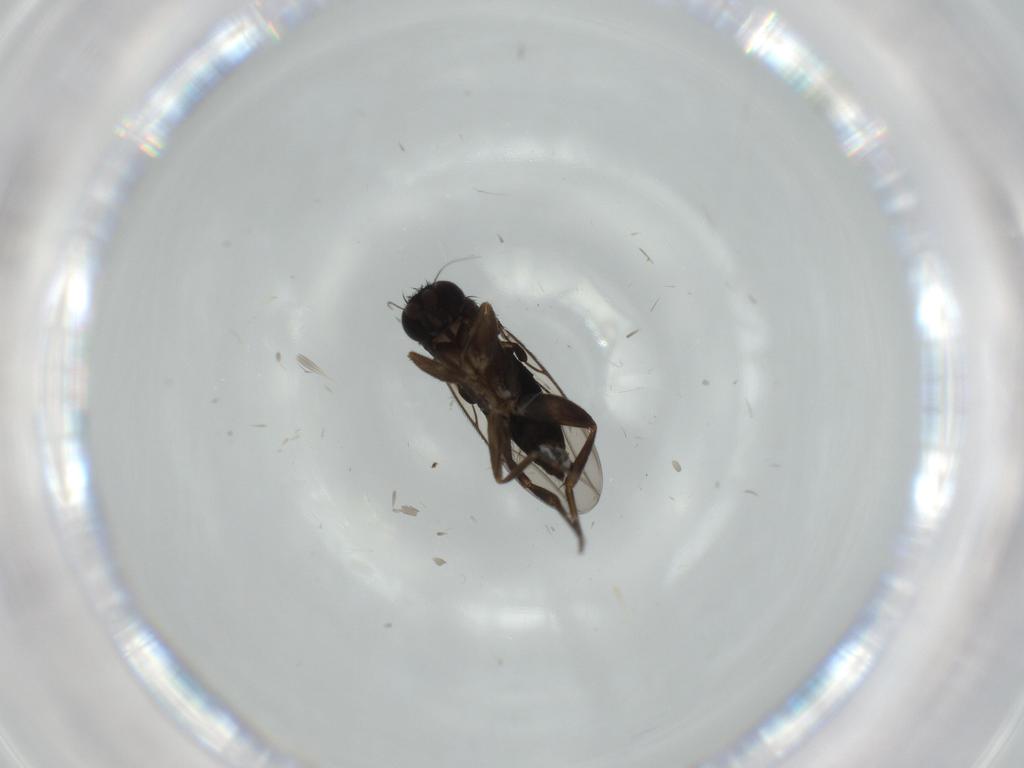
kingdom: Animalia
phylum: Arthropoda
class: Insecta
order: Diptera
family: Phoridae
